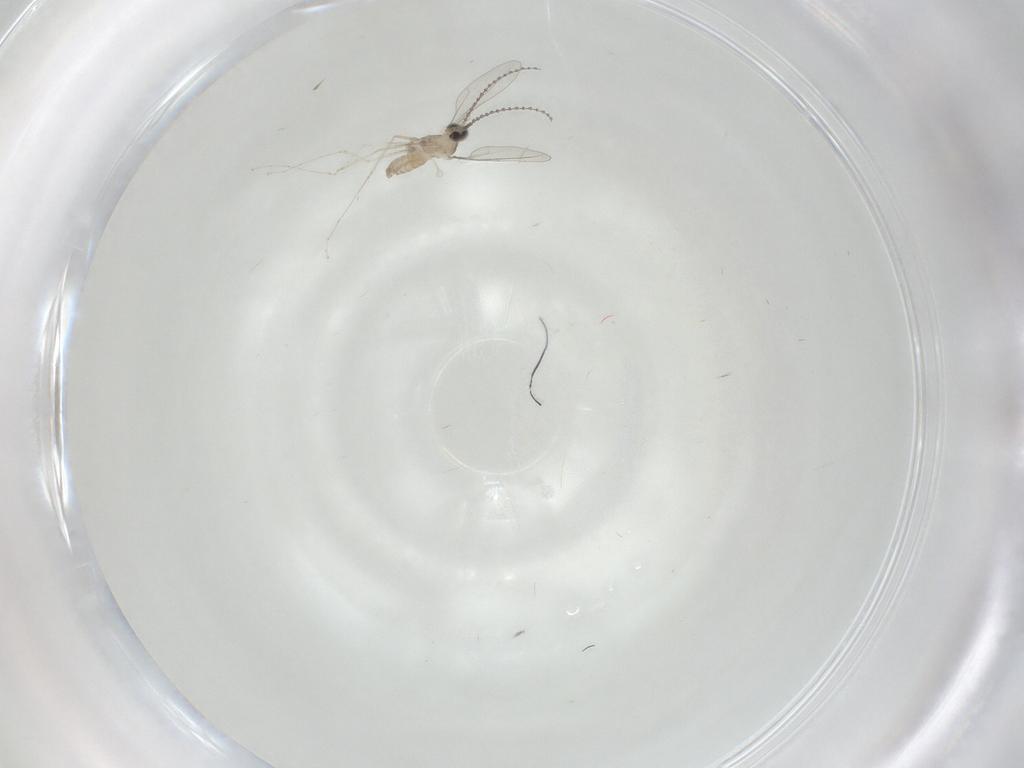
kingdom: Animalia
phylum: Arthropoda
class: Insecta
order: Diptera
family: Cecidomyiidae
